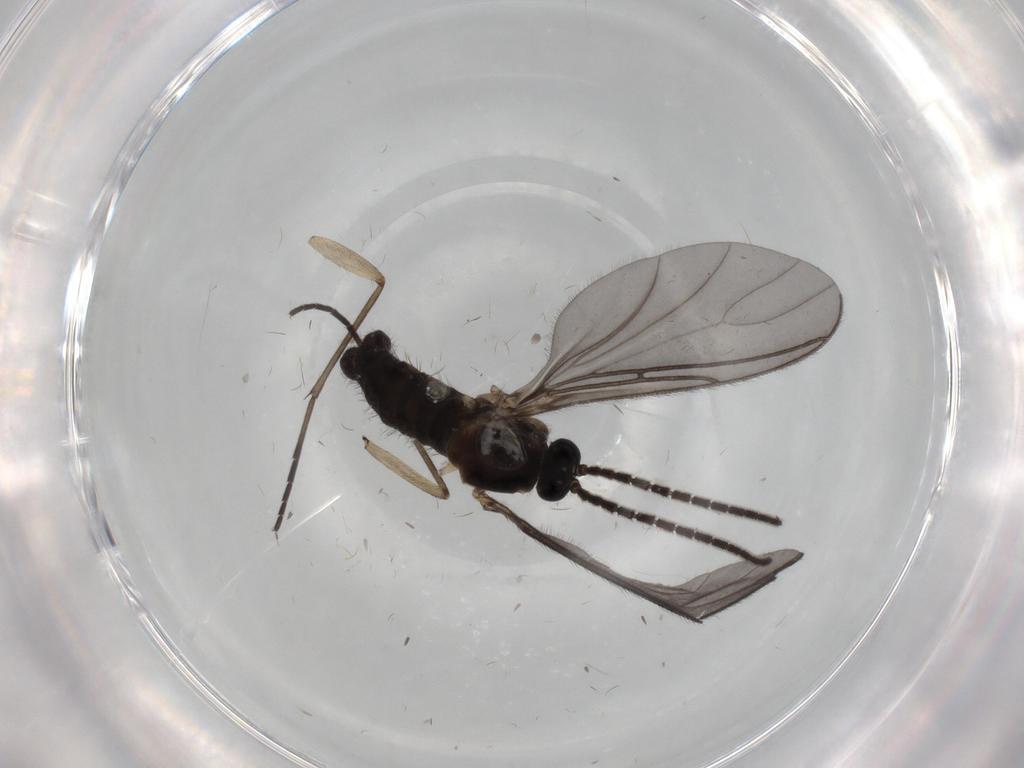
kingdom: Animalia
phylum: Arthropoda
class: Insecta
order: Diptera
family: Sciaridae
